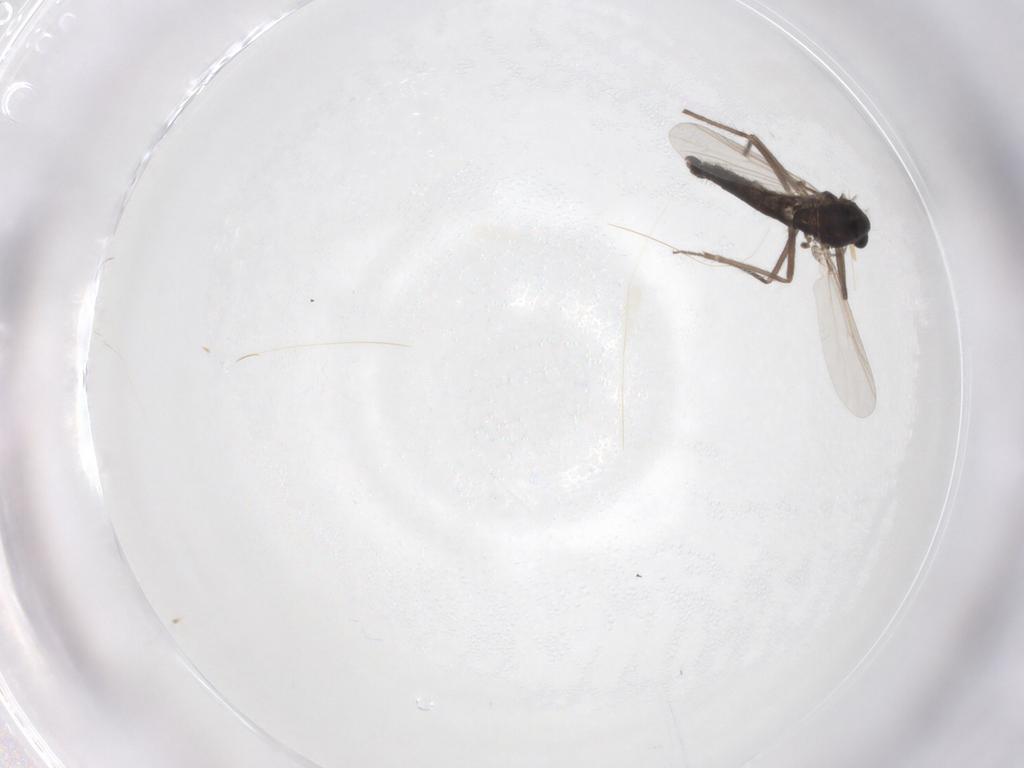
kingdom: Animalia
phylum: Arthropoda
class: Insecta
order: Diptera
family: Chironomidae
